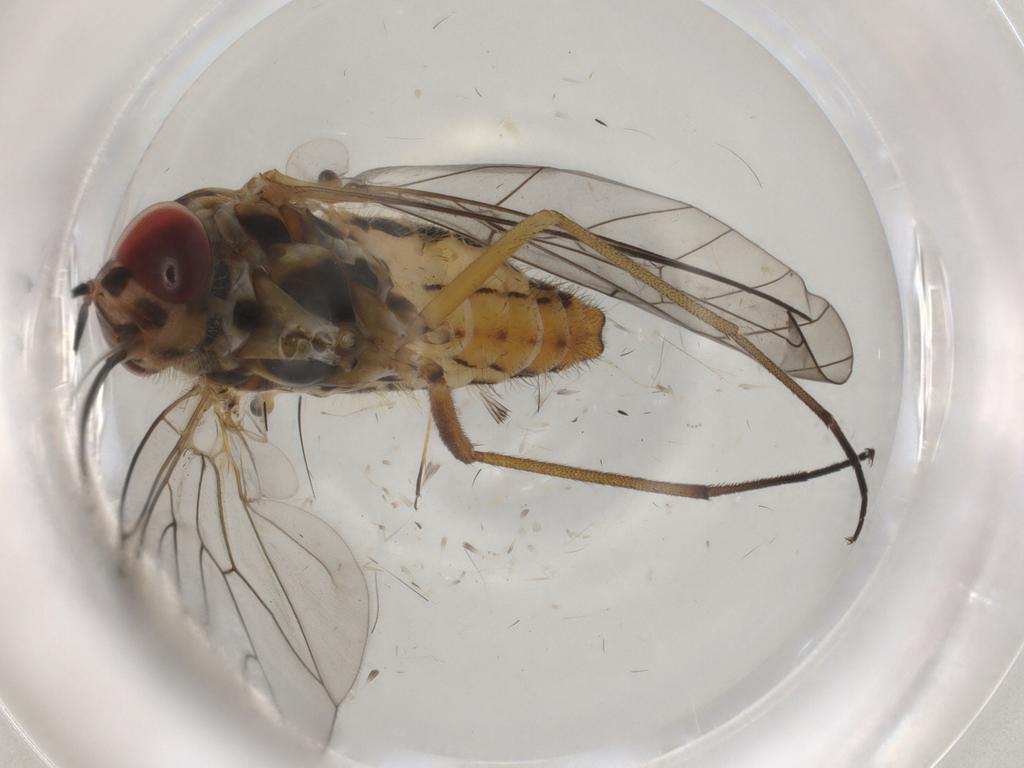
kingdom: Animalia
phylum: Arthropoda
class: Insecta
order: Diptera
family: Bombyliidae
